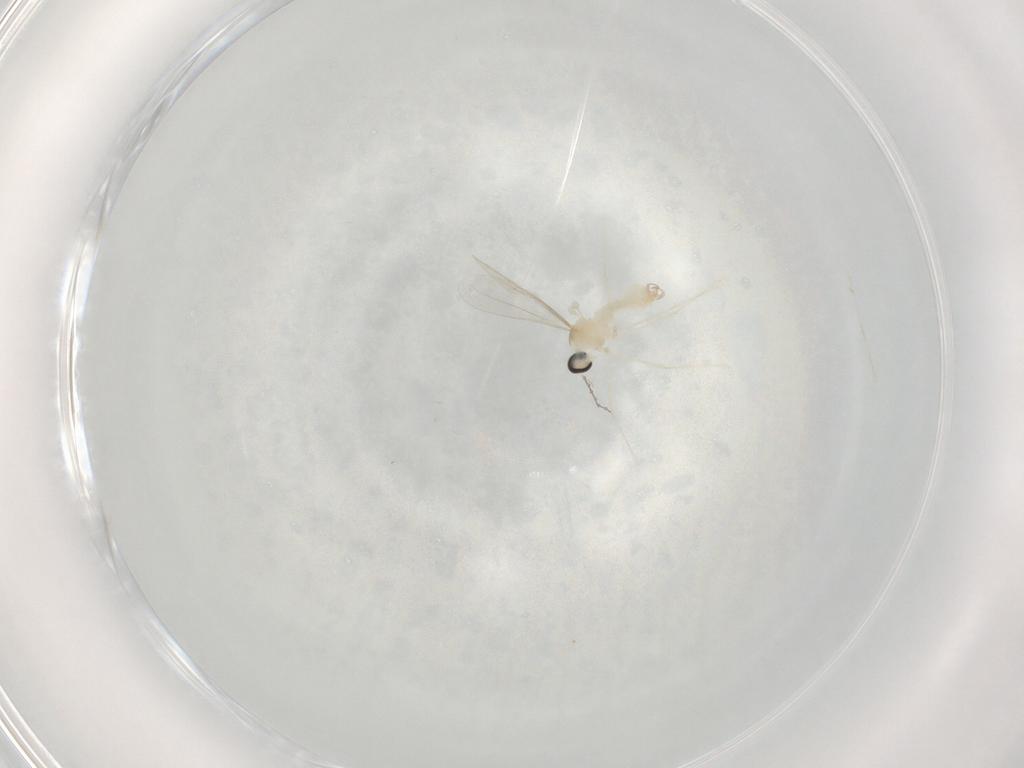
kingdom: Animalia
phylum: Arthropoda
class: Insecta
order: Diptera
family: Cecidomyiidae
